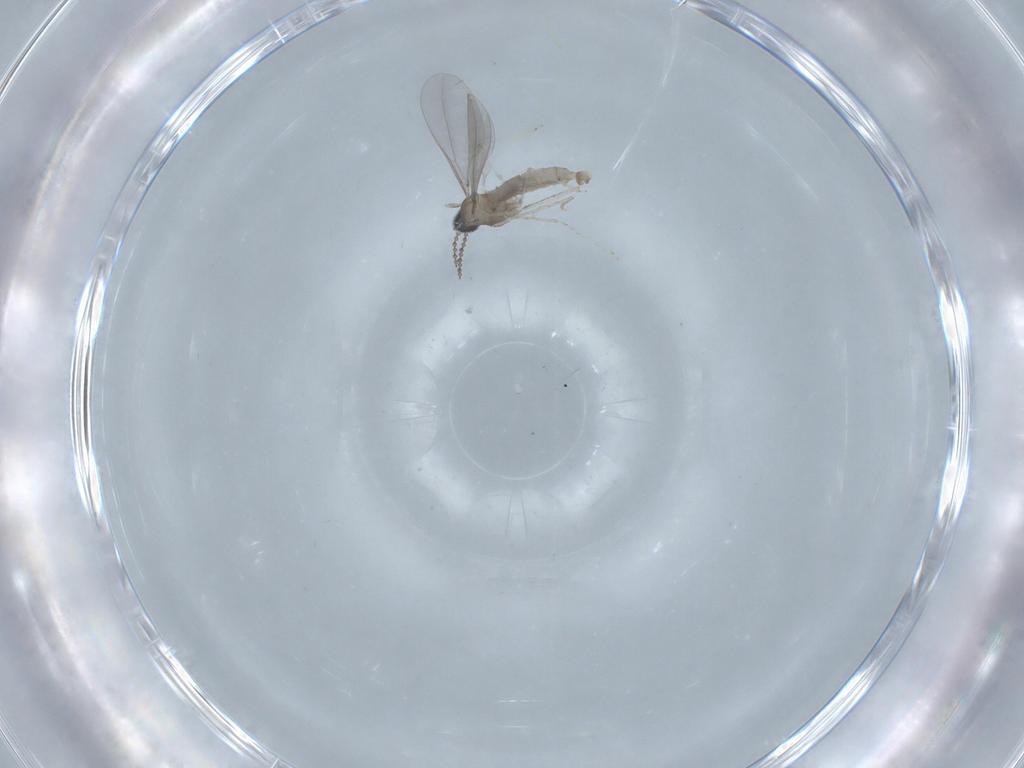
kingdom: Animalia
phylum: Arthropoda
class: Insecta
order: Diptera
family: Cecidomyiidae
